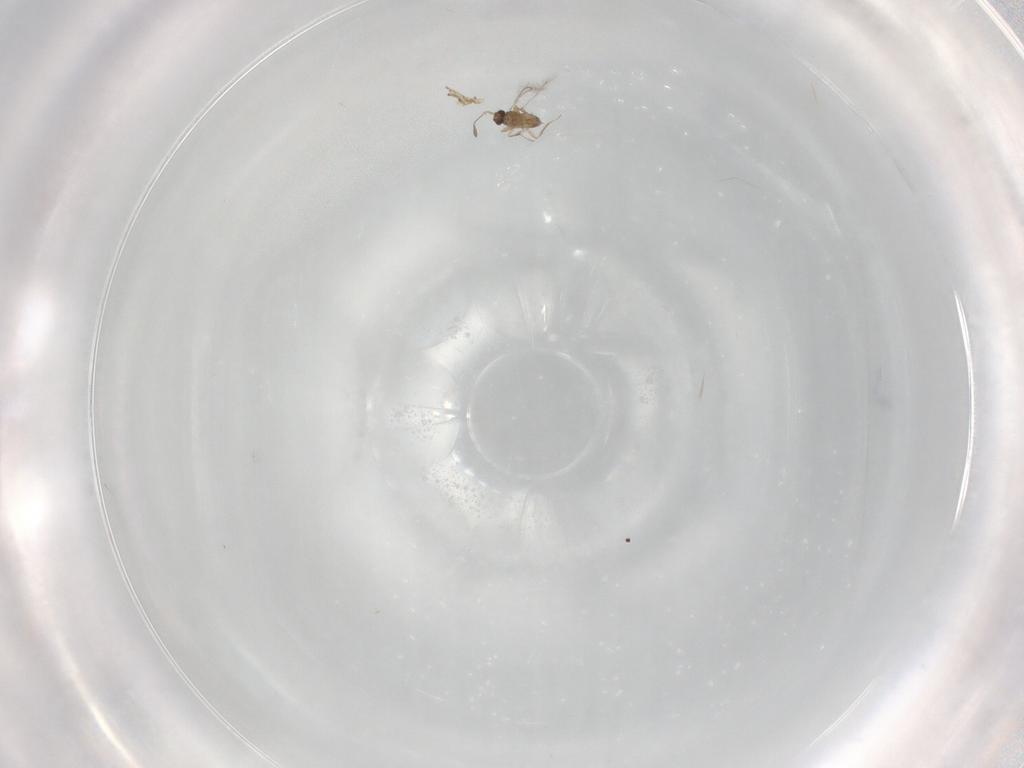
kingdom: Animalia
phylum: Arthropoda
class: Insecta
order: Hymenoptera
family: Mymaridae
